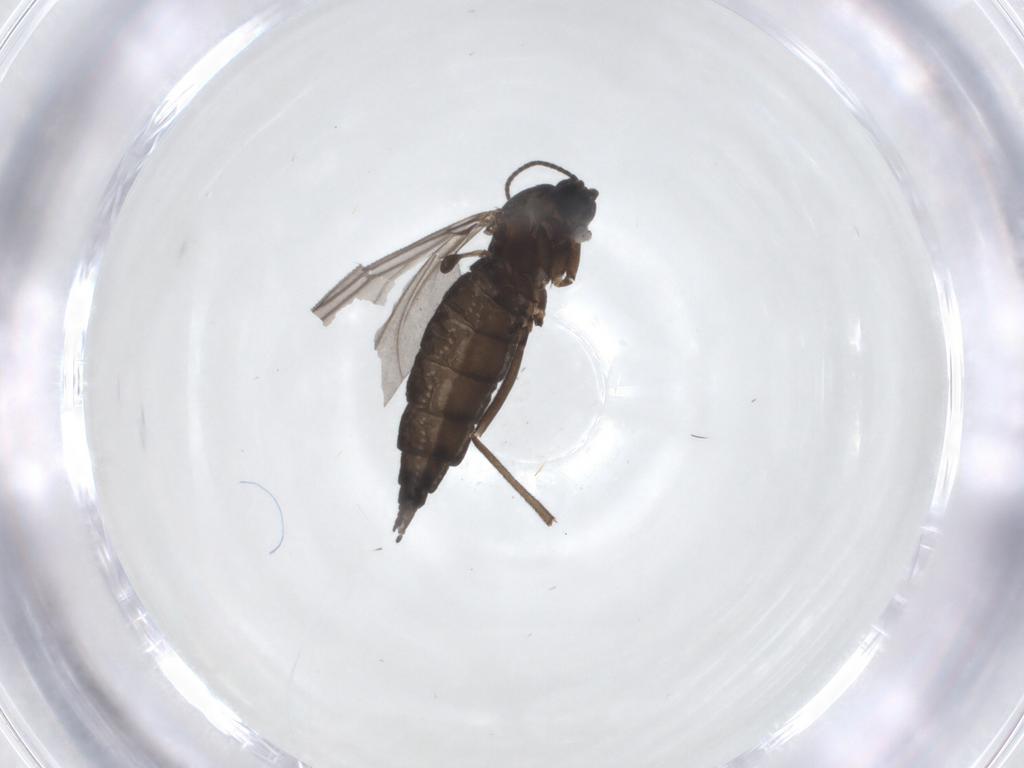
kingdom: Animalia
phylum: Arthropoda
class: Insecta
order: Diptera
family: Sciaridae
